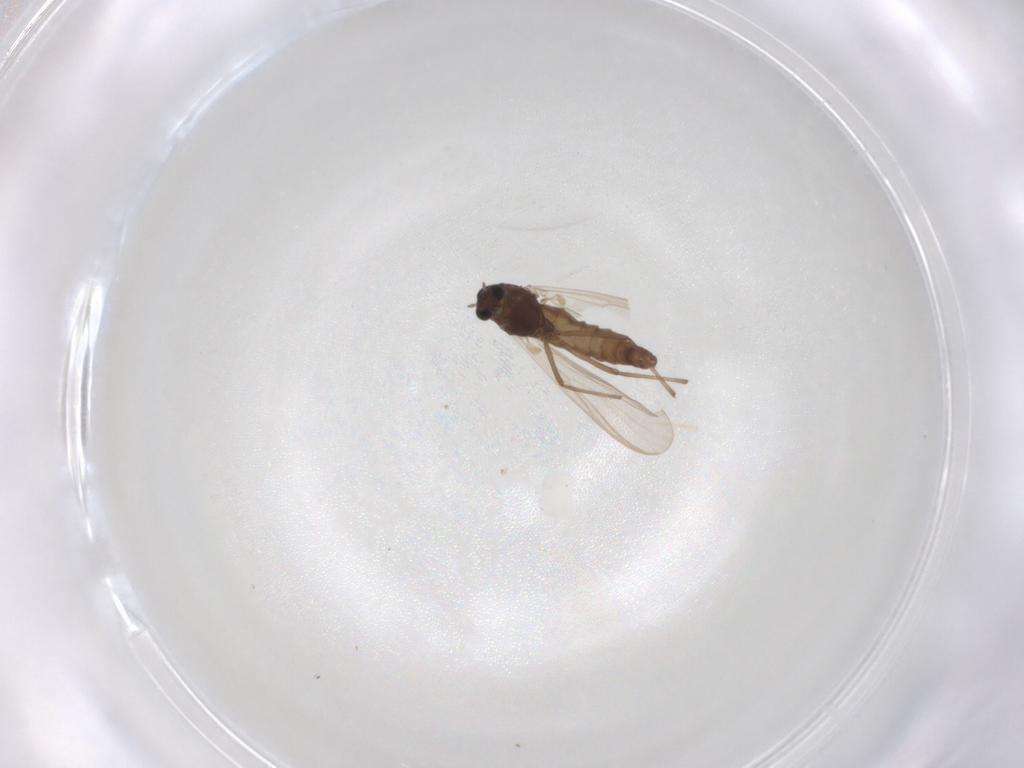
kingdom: Animalia
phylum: Arthropoda
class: Insecta
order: Diptera
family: Chironomidae
